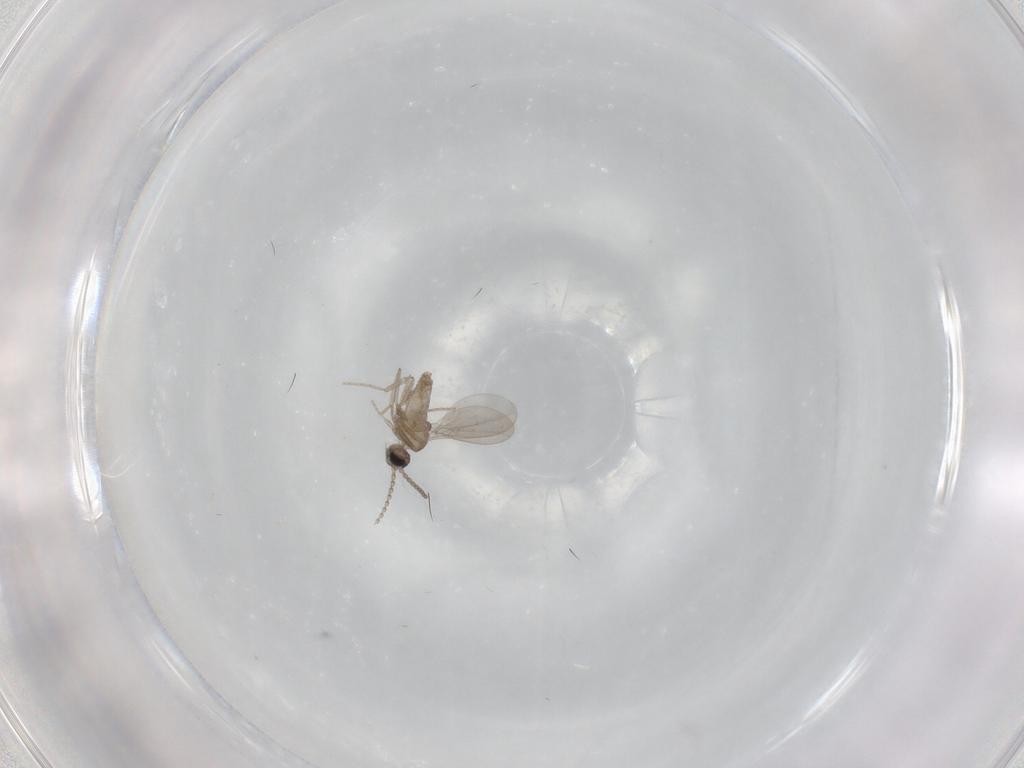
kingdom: Animalia
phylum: Arthropoda
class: Insecta
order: Diptera
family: Cecidomyiidae
